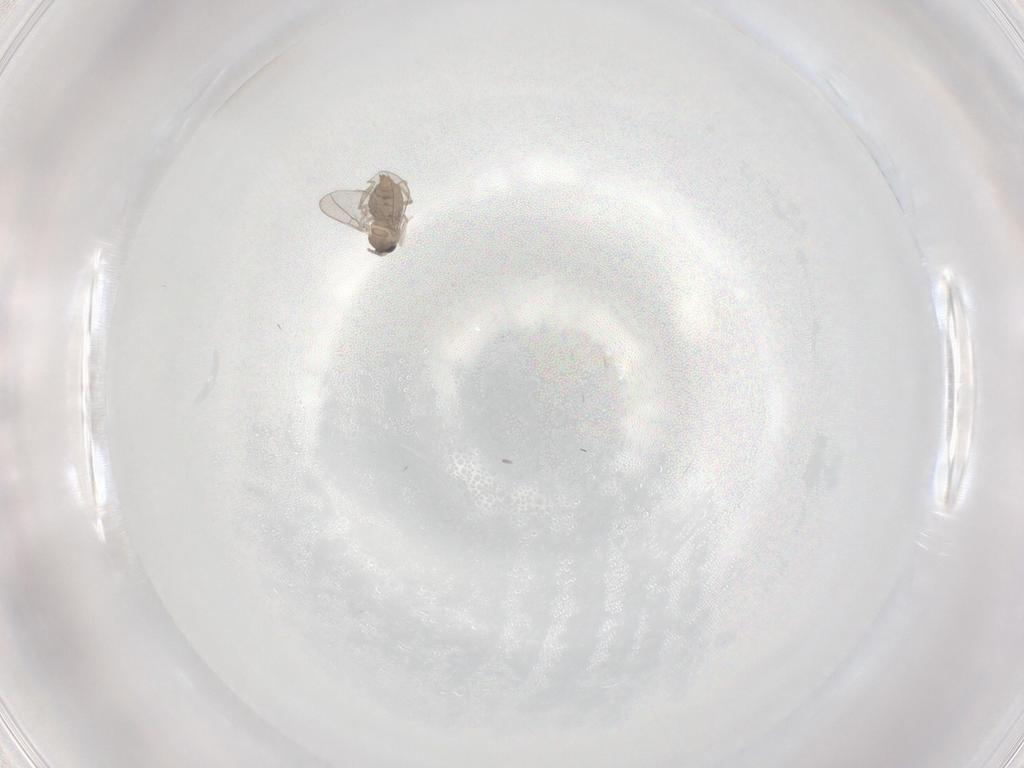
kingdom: Animalia
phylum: Arthropoda
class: Insecta
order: Diptera
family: Cecidomyiidae
